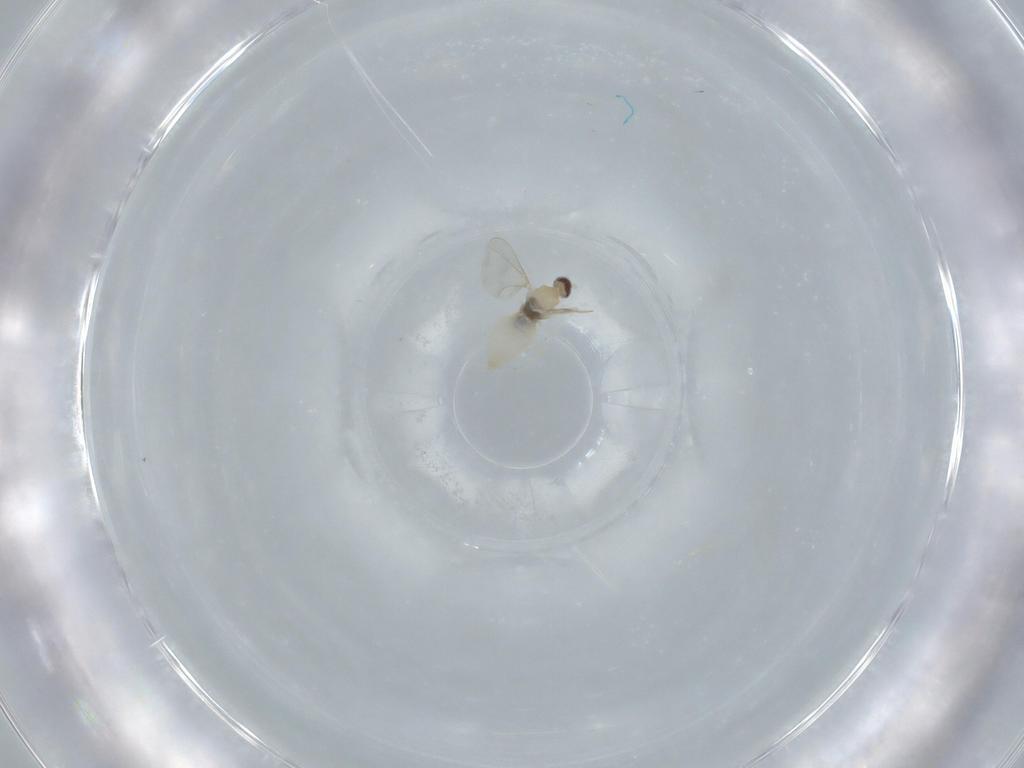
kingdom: Animalia
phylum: Arthropoda
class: Insecta
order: Diptera
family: Cecidomyiidae
